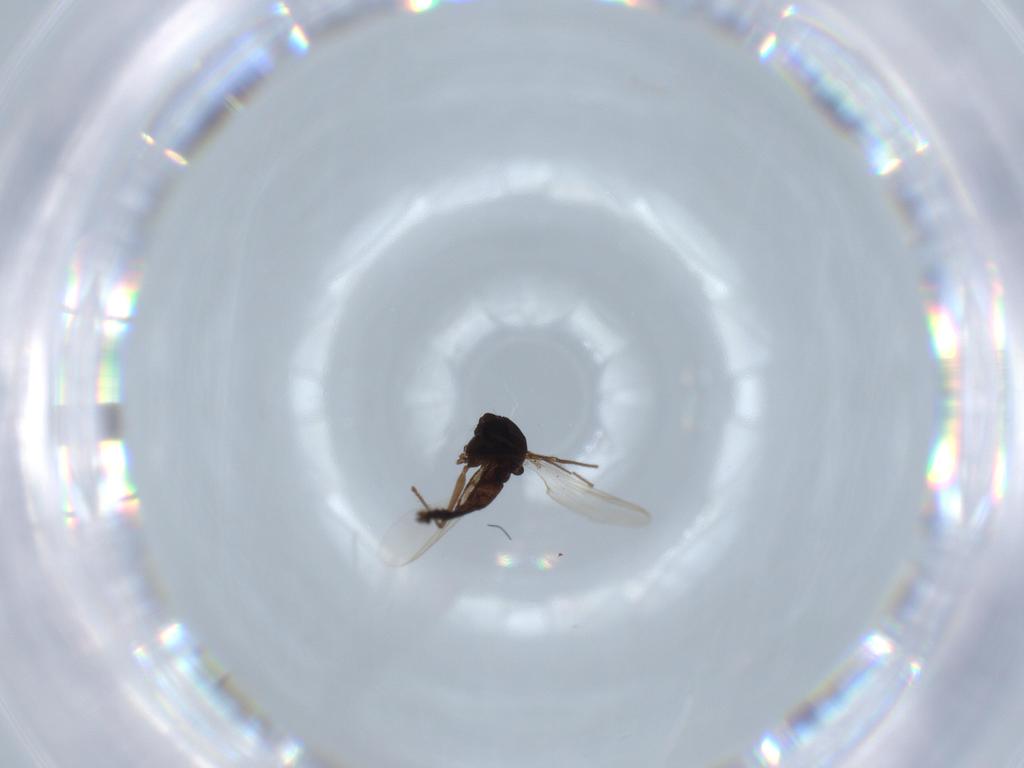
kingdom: Animalia
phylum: Arthropoda
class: Insecta
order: Diptera
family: Chironomidae
